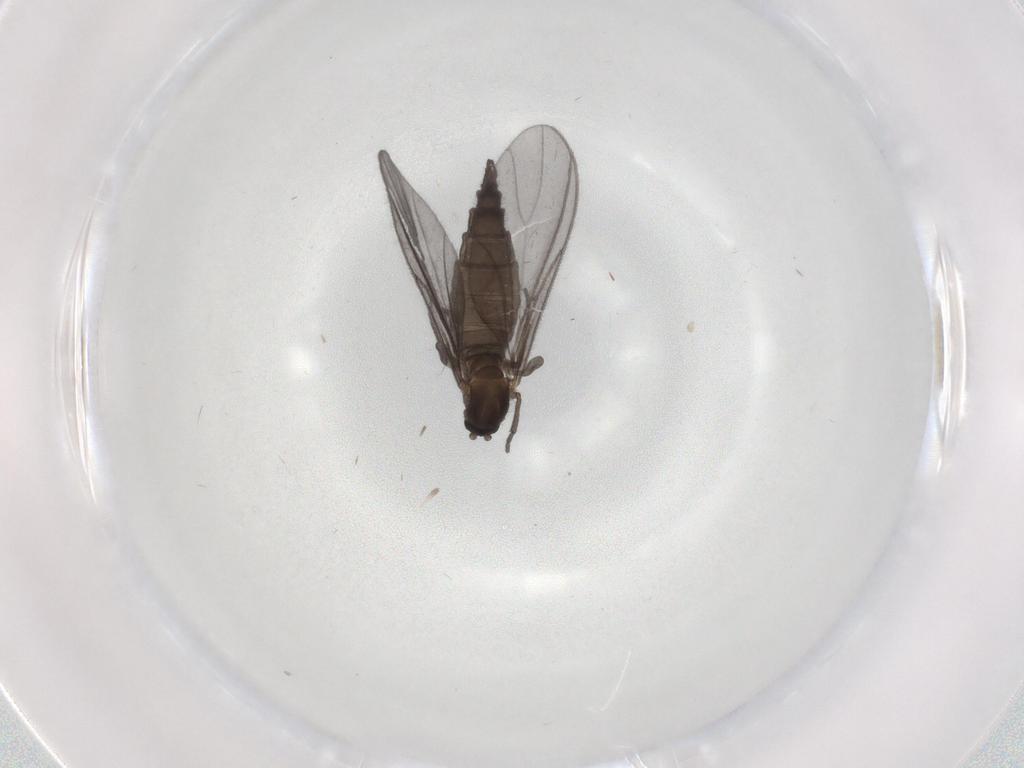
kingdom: Animalia
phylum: Arthropoda
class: Insecta
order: Diptera
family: Sciaridae
